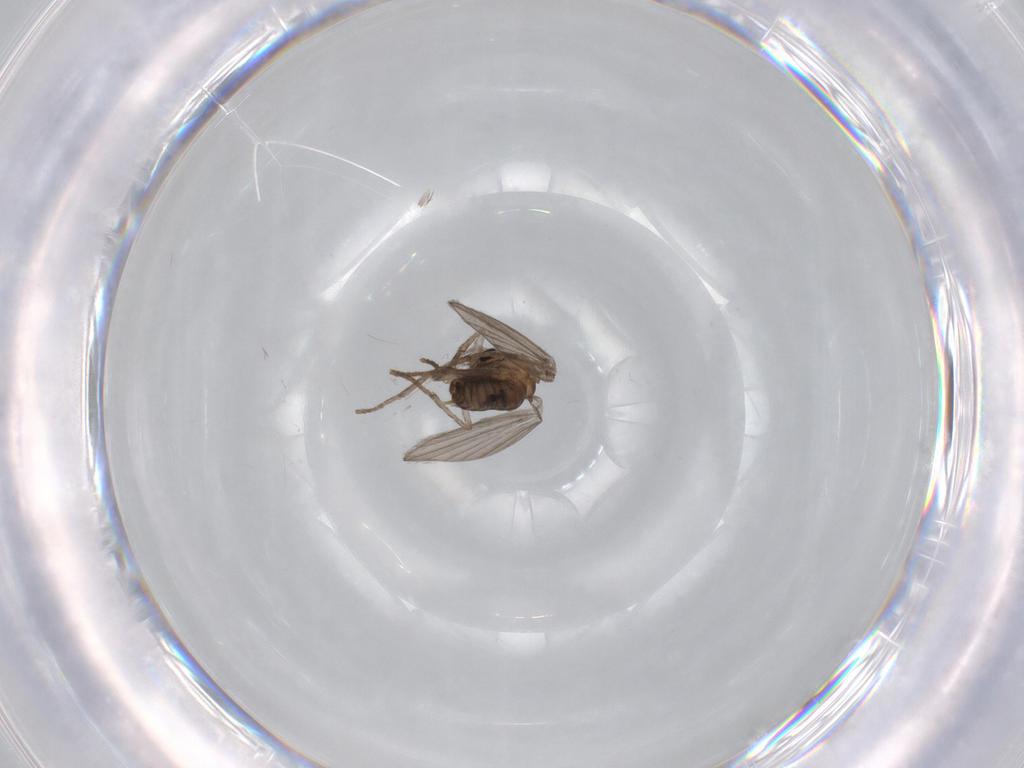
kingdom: Animalia
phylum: Arthropoda
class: Insecta
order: Diptera
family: Psychodidae
